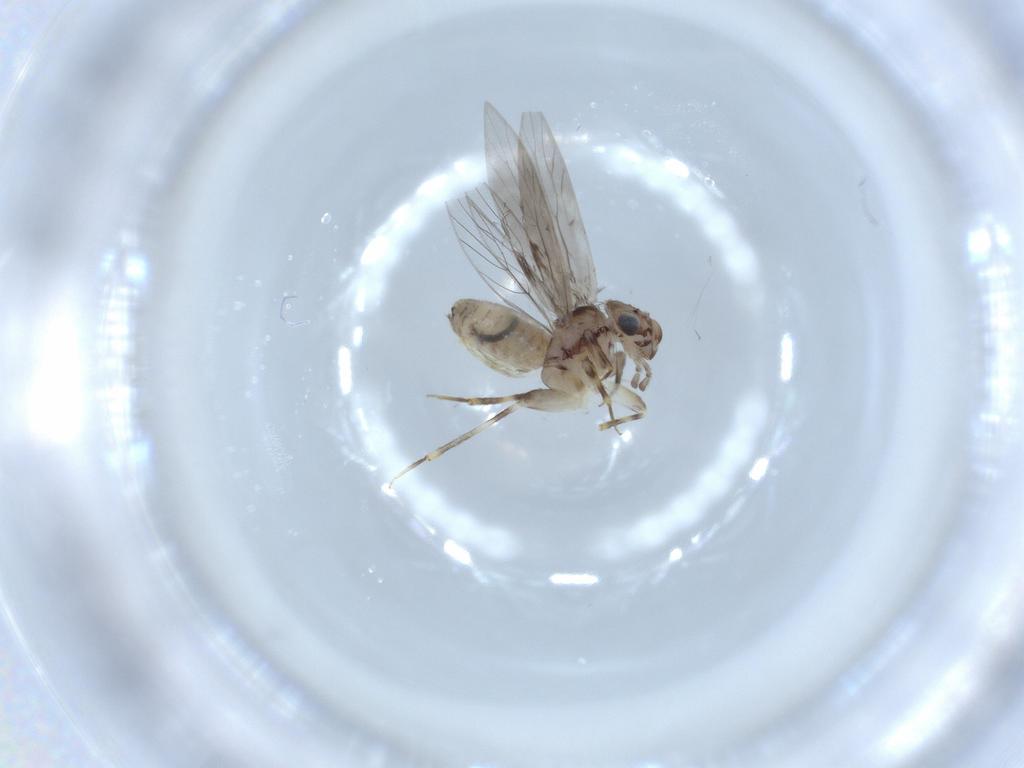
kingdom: Animalia
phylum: Arthropoda
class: Insecta
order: Psocodea
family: Lepidopsocidae
